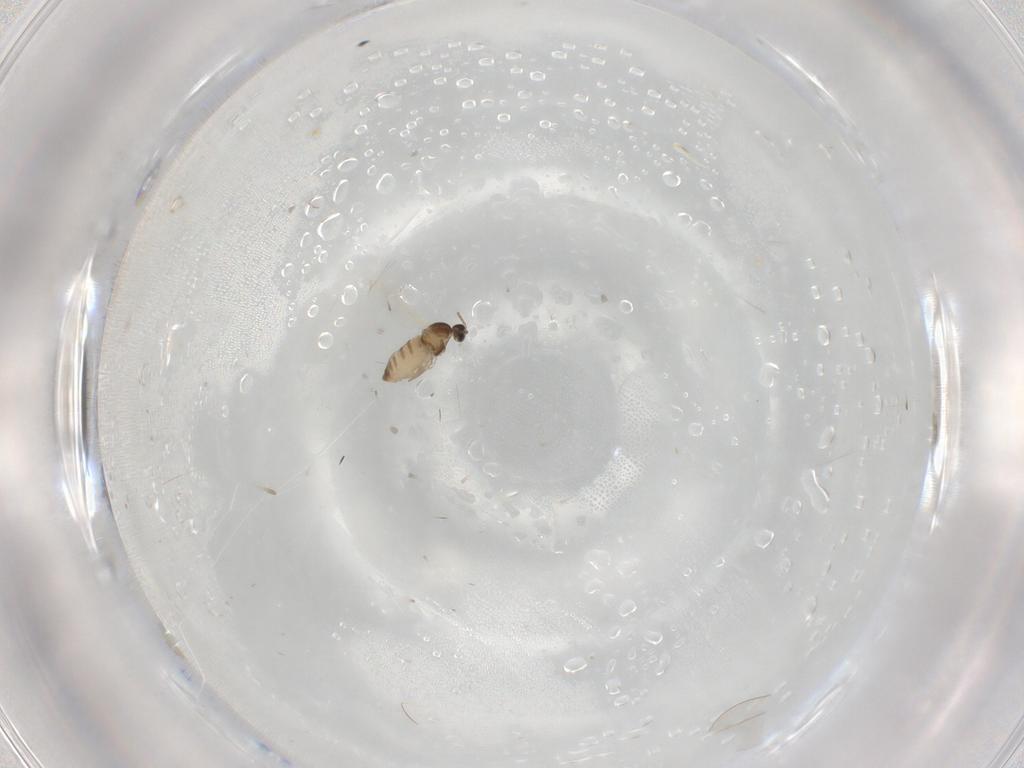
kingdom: Animalia
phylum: Arthropoda
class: Insecta
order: Diptera
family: Cecidomyiidae
